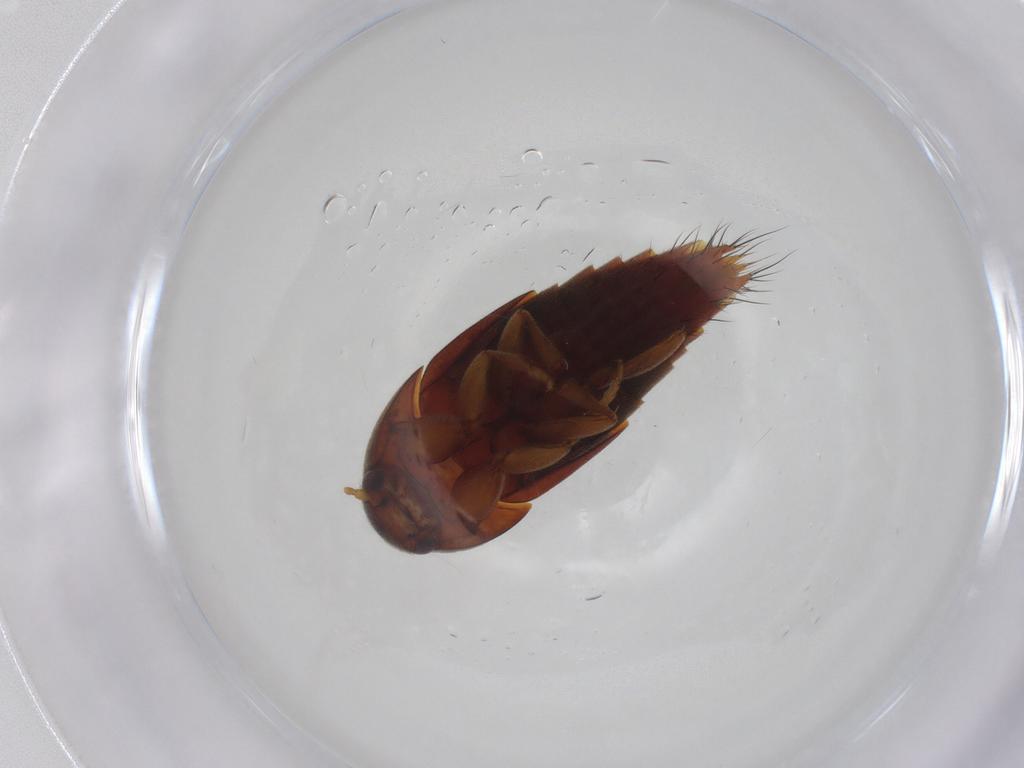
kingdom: Animalia
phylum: Arthropoda
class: Insecta
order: Coleoptera
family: Staphylinidae
